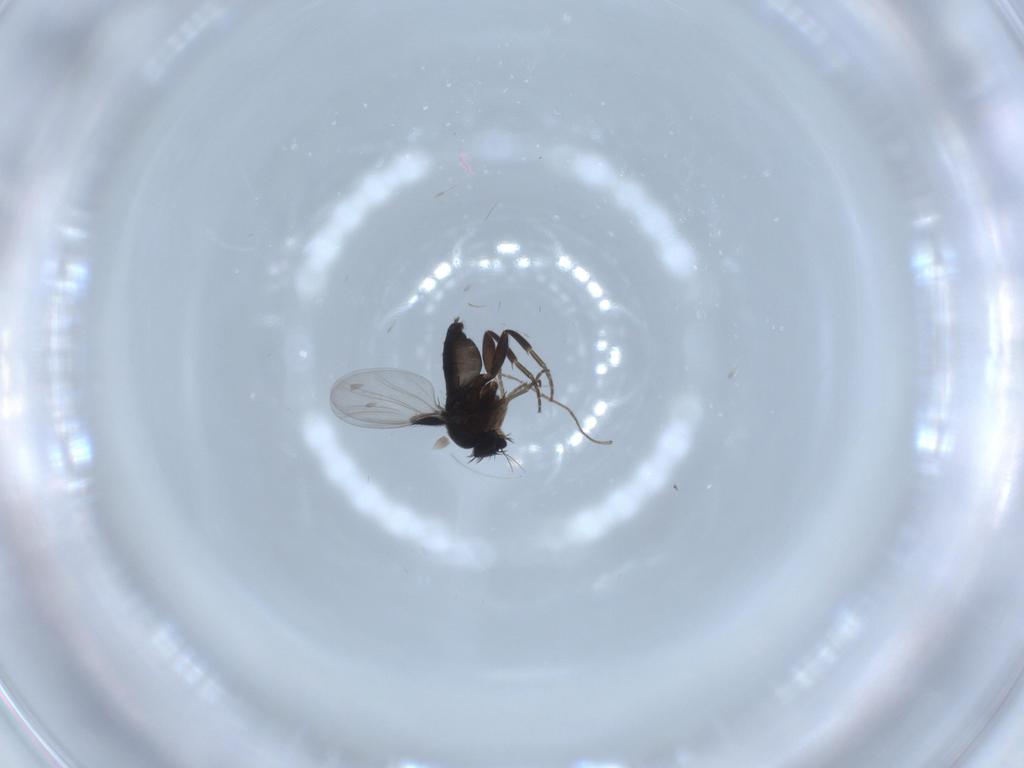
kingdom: Animalia
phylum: Arthropoda
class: Insecta
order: Diptera
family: Chironomidae
